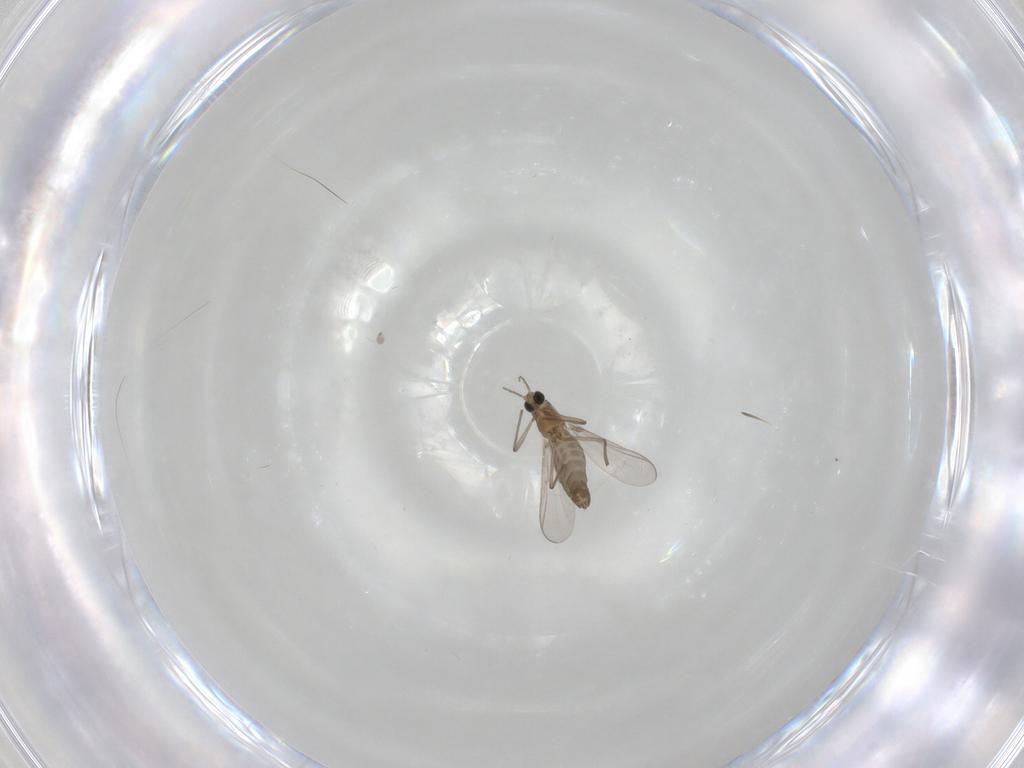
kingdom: Animalia
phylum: Arthropoda
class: Insecta
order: Diptera
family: Chironomidae
